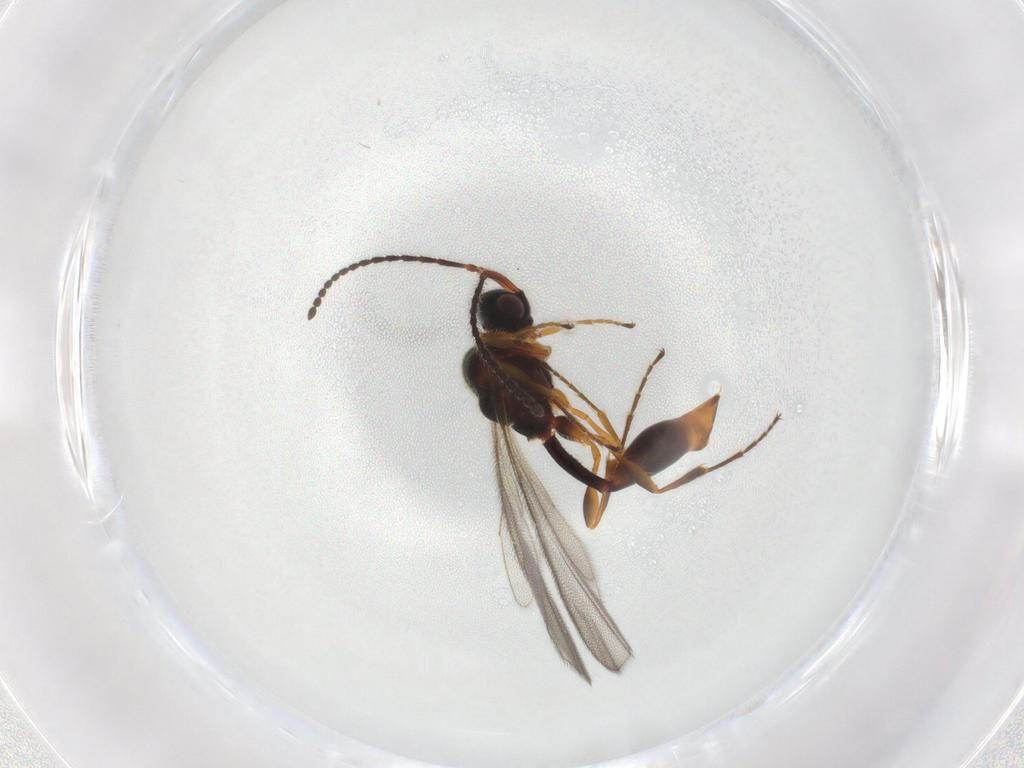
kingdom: Animalia
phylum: Arthropoda
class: Insecta
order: Hymenoptera
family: Diapriidae
